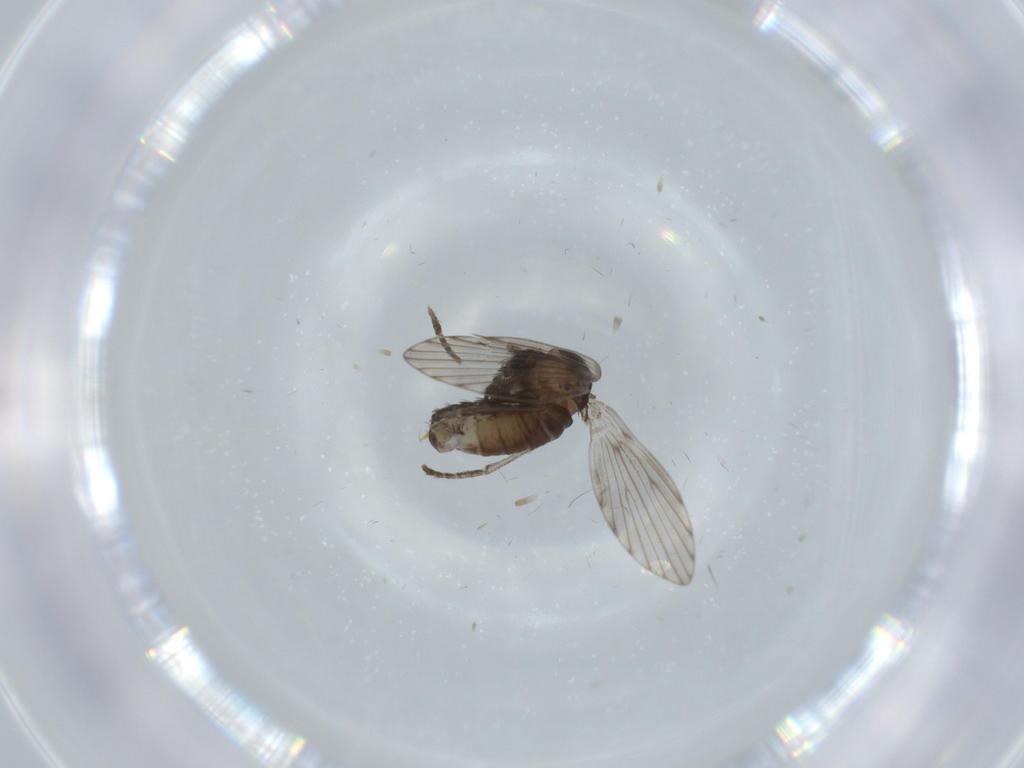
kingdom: Animalia
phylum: Arthropoda
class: Insecta
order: Diptera
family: Psychodidae
